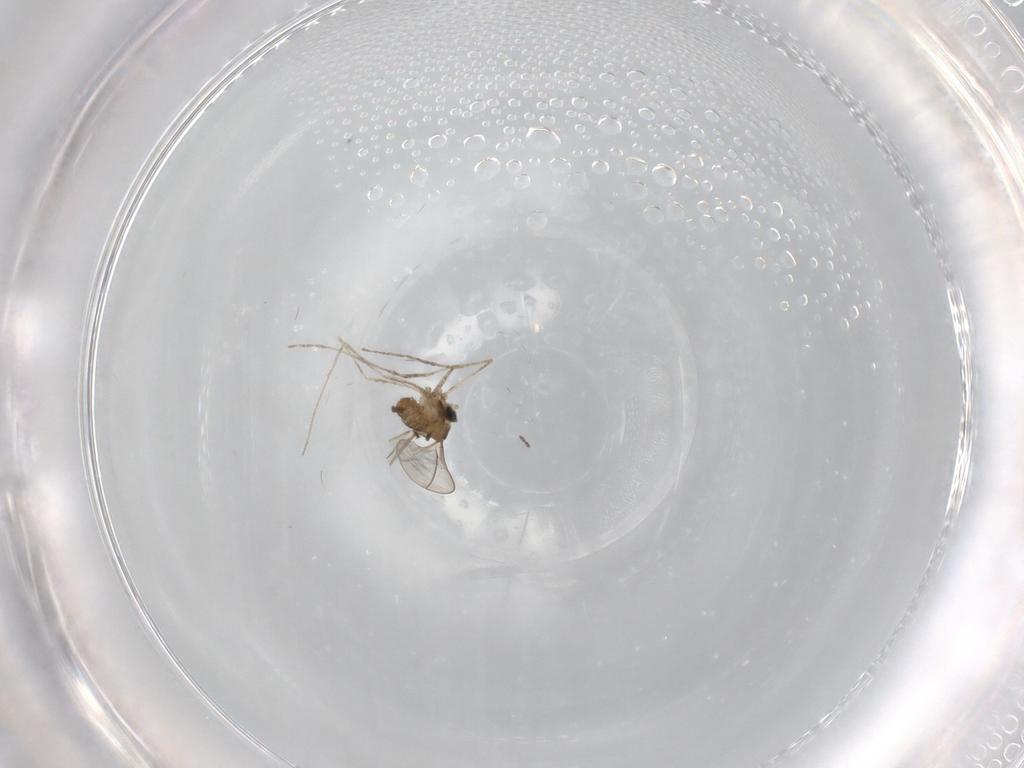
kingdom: Animalia
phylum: Arthropoda
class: Insecta
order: Diptera
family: Cecidomyiidae
